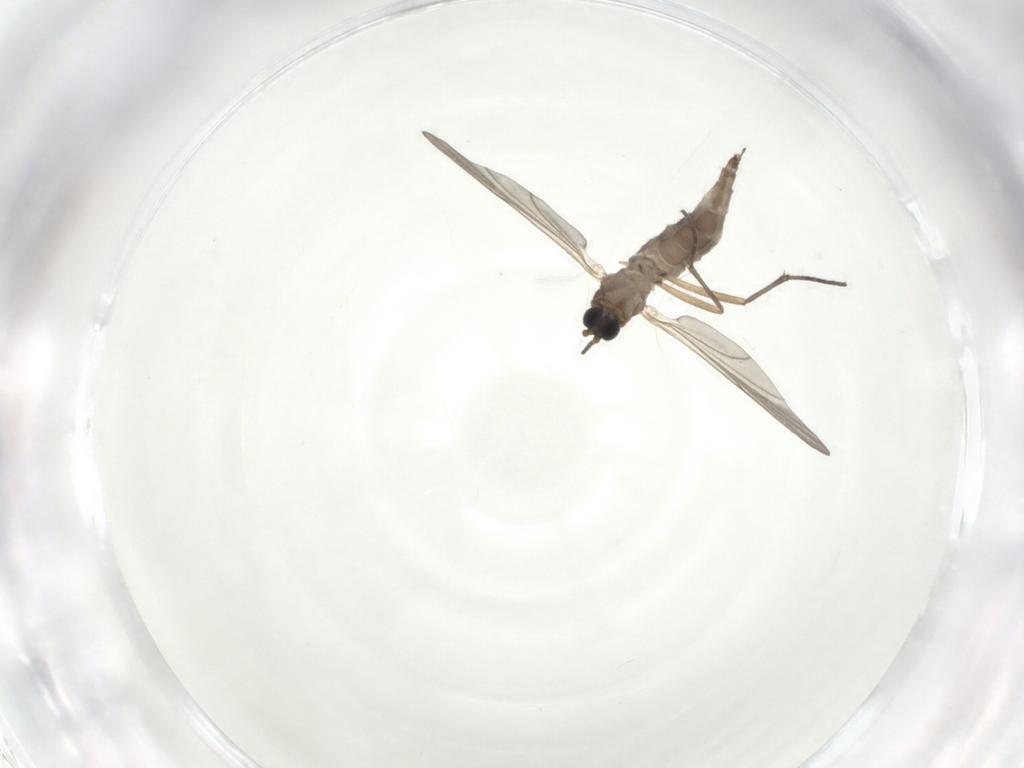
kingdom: Animalia
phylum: Arthropoda
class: Insecta
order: Diptera
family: Sciaridae
